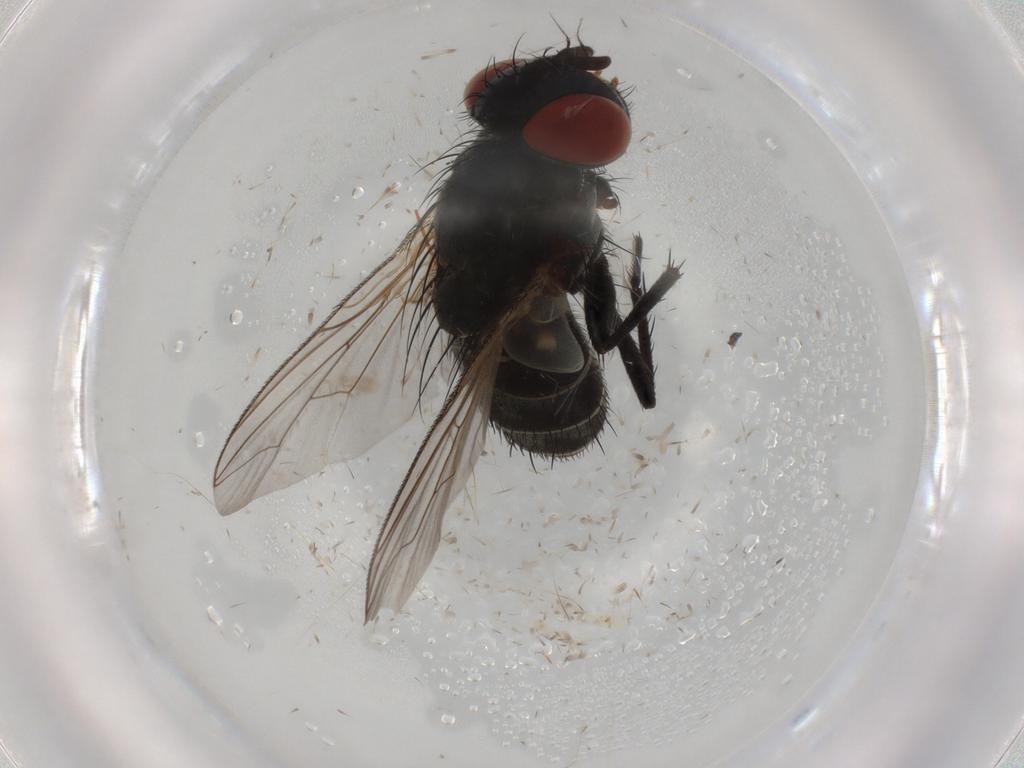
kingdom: Animalia
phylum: Arthropoda
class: Insecta
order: Diptera
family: Sarcophagidae
